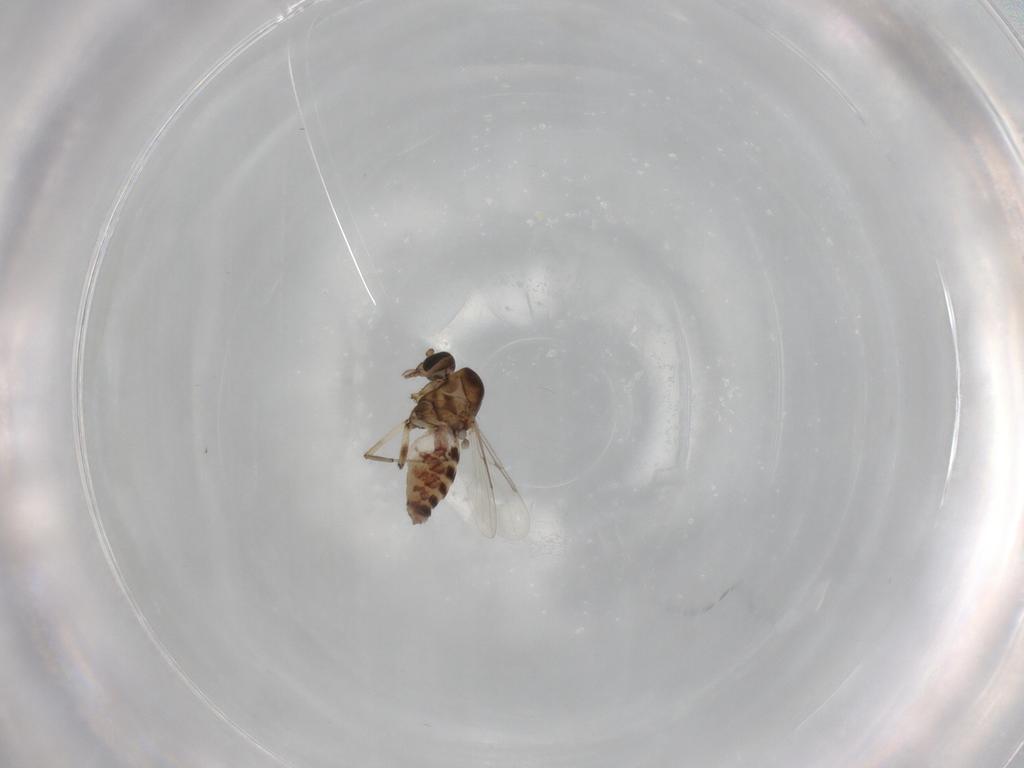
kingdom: Animalia
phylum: Arthropoda
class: Insecta
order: Diptera
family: Ceratopogonidae
